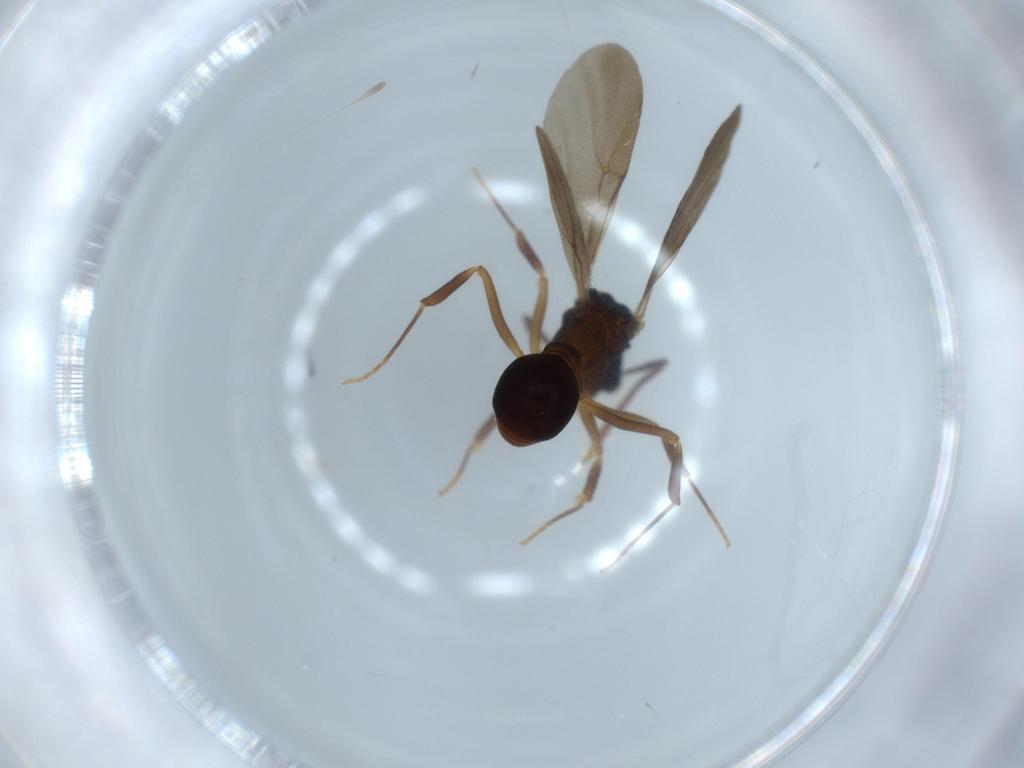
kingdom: Animalia
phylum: Arthropoda
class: Insecta
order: Hymenoptera
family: Formicidae
